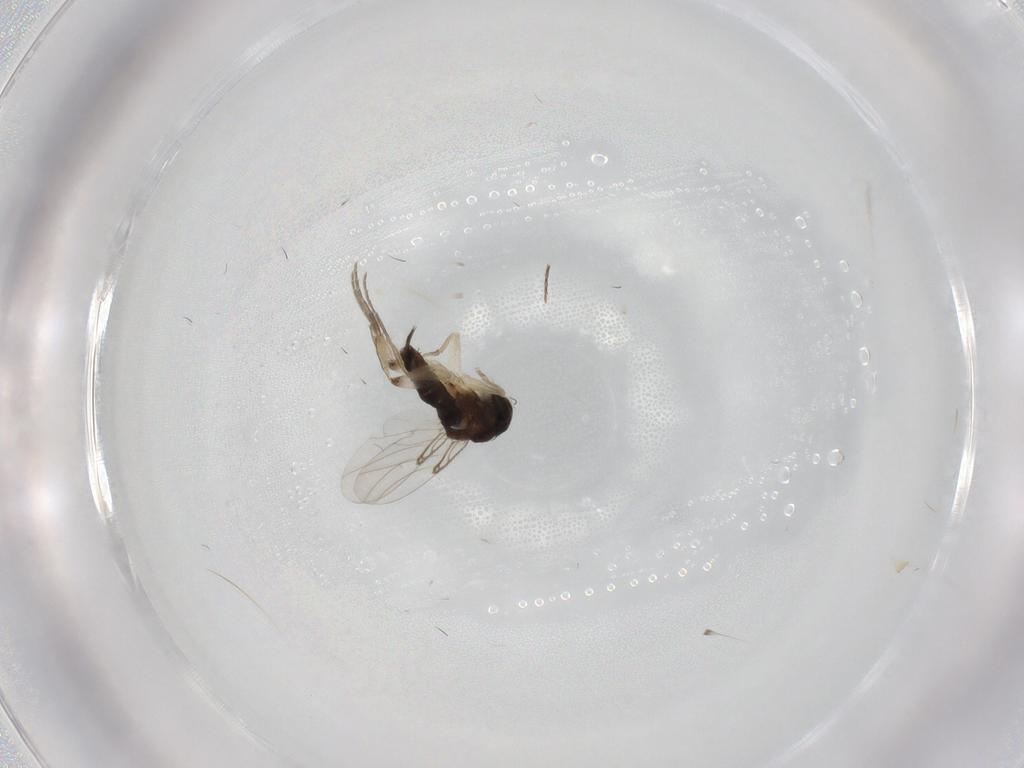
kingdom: Animalia
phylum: Arthropoda
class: Insecta
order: Diptera
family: Phoridae
